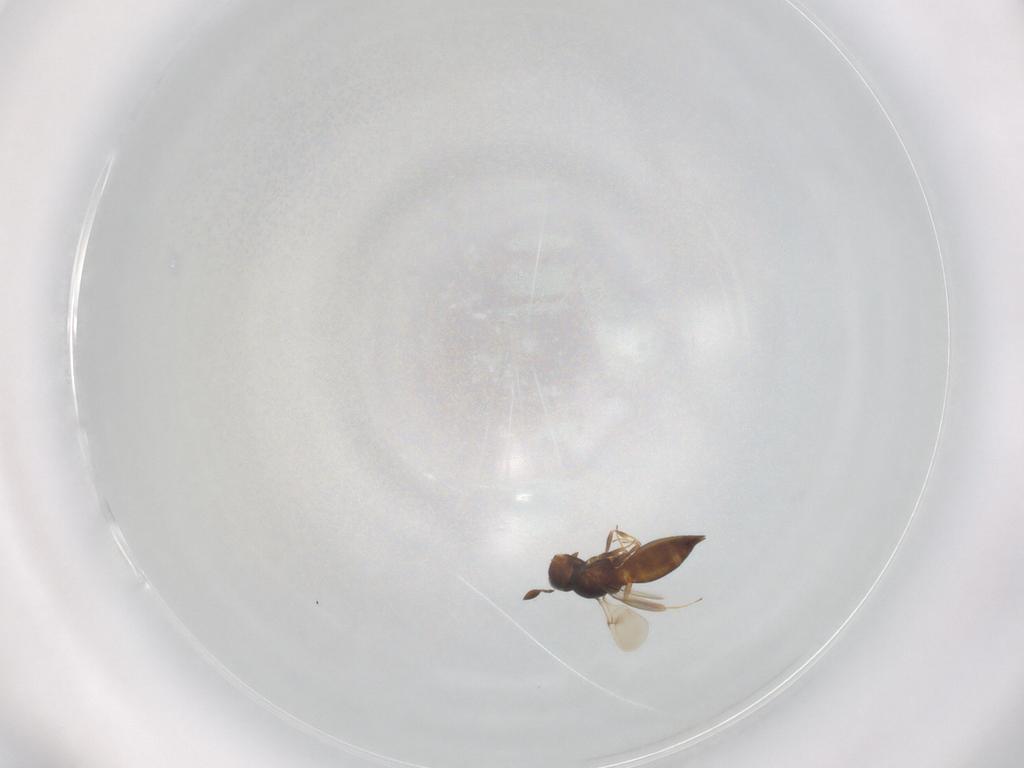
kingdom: Animalia
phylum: Arthropoda
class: Insecta
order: Hymenoptera
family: Scelionidae
